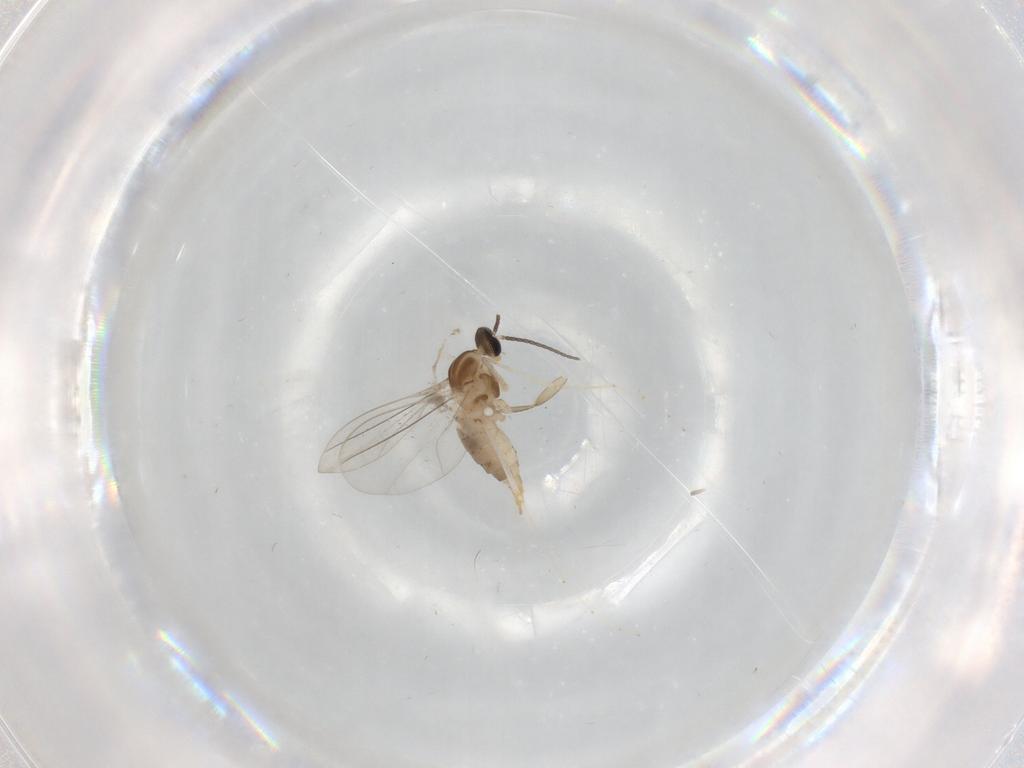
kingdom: Animalia
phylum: Arthropoda
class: Insecta
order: Diptera
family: Cecidomyiidae
